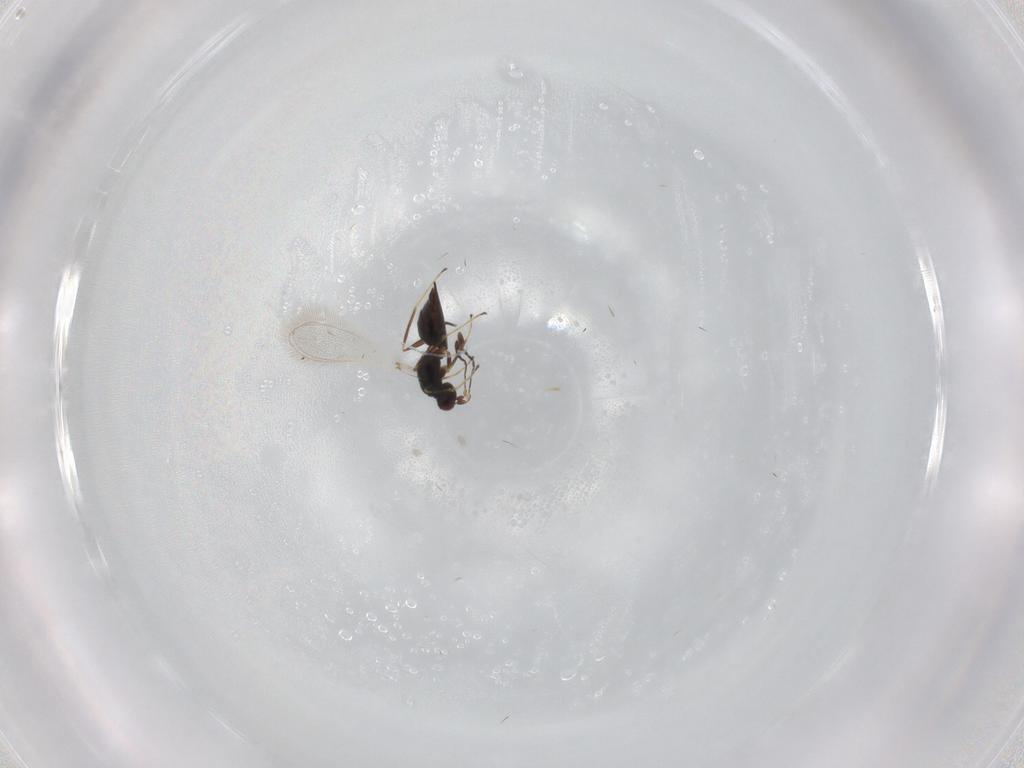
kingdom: Animalia
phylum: Arthropoda
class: Insecta
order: Hymenoptera
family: Mymaridae
